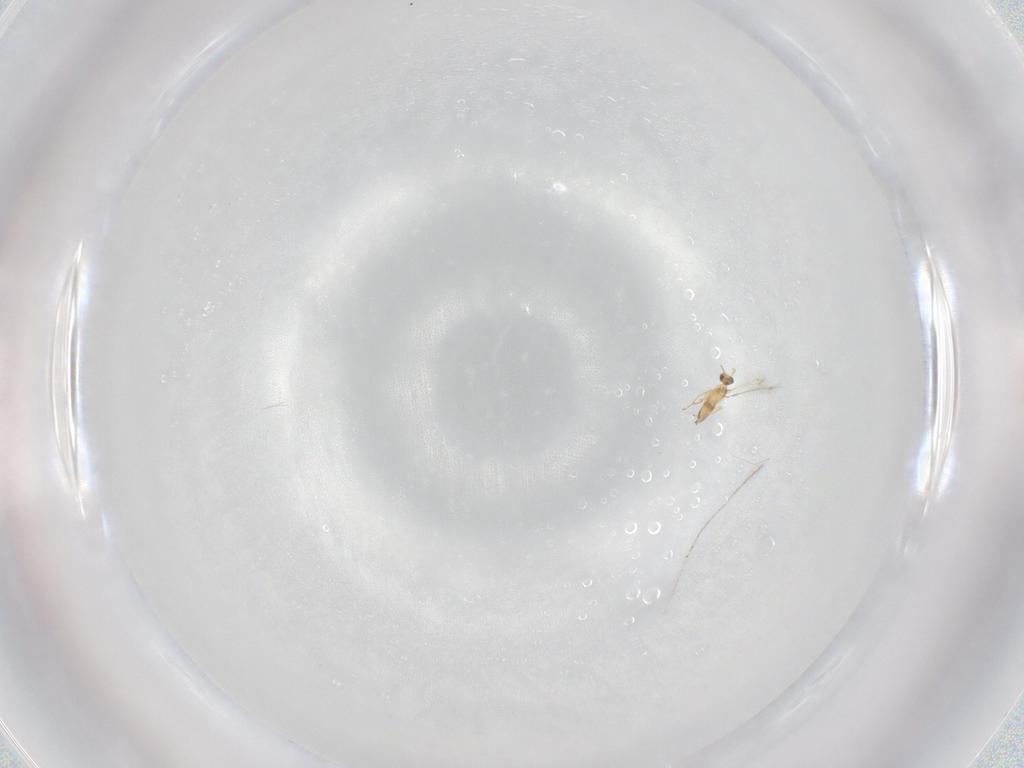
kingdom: Animalia
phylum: Arthropoda
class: Insecta
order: Hymenoptera
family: Mymaridae
